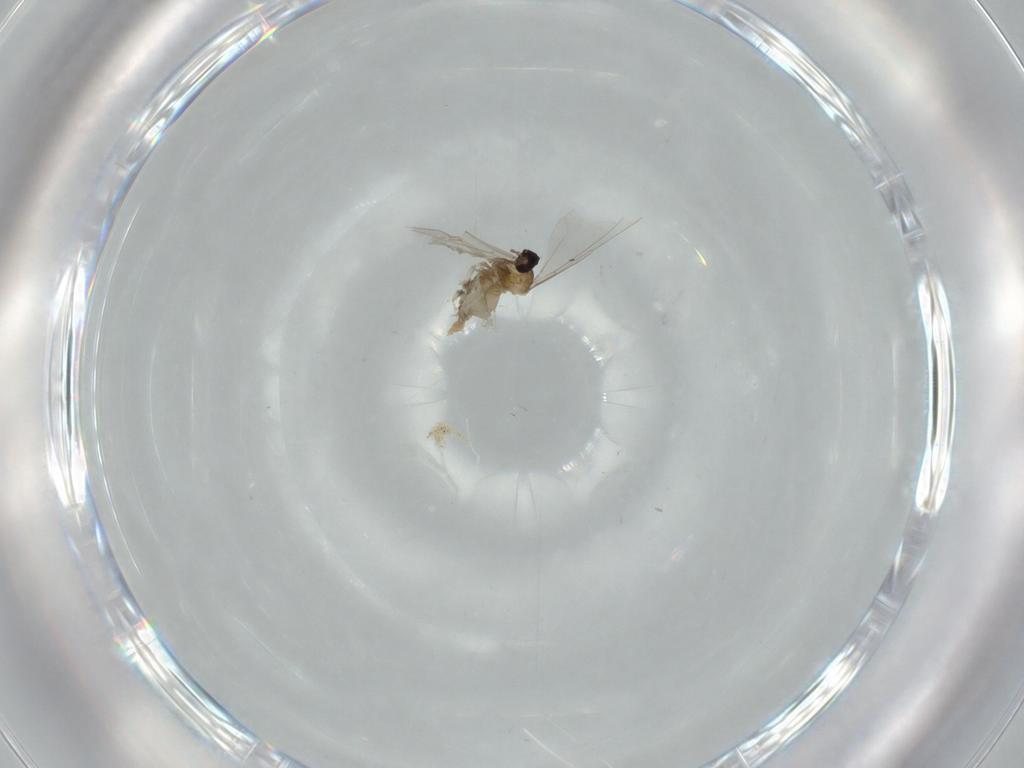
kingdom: Animalia
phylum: Arthropoda
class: Insecta
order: Diptera
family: Cecidomyiidae
